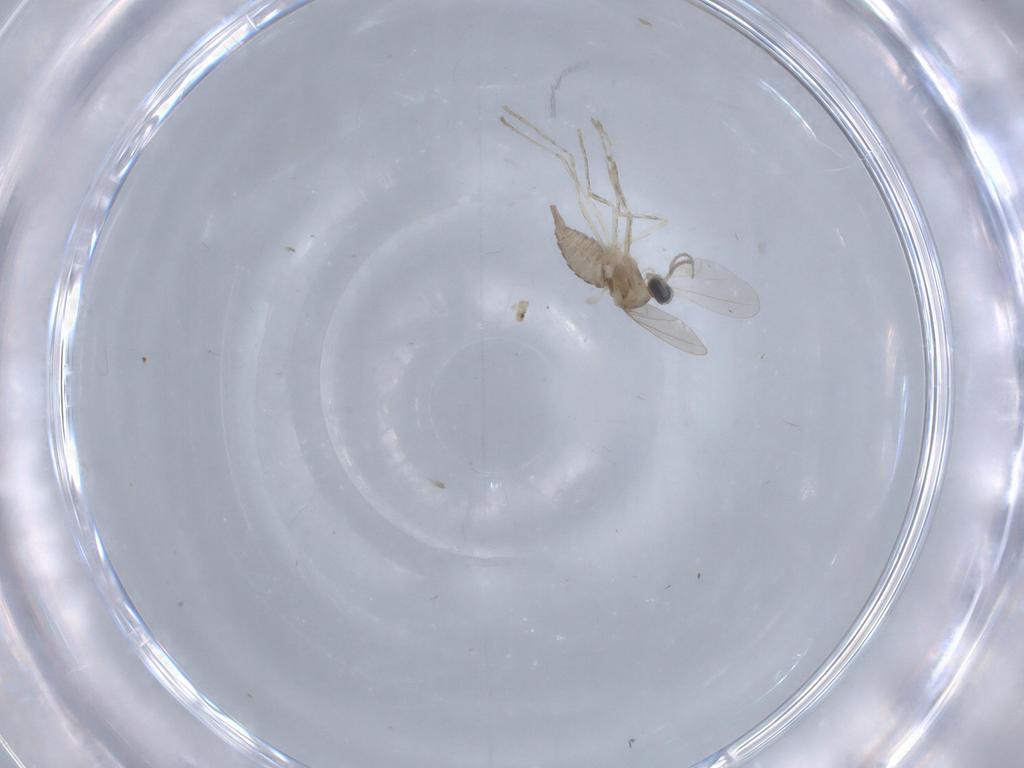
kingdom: Animalia
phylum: Arthropoda
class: Insecta
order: Diptera
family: Cecidomyiidae
